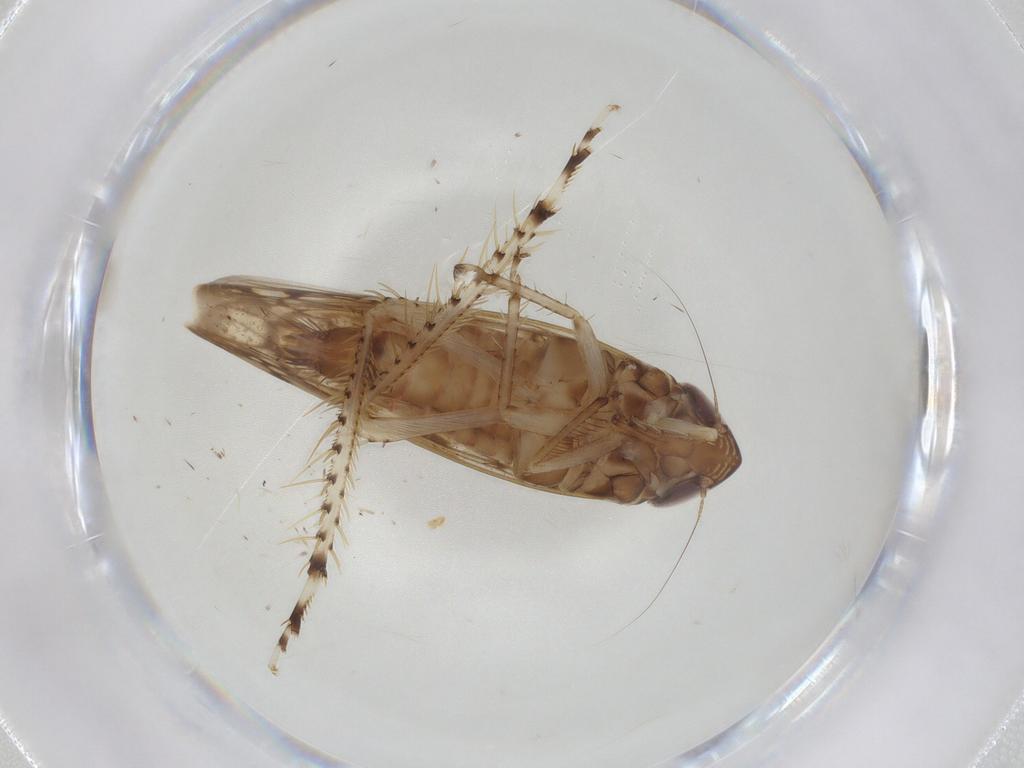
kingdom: Animalia
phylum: Arthropoda
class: Insecta
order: Hemiptera
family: Cicadellidae
